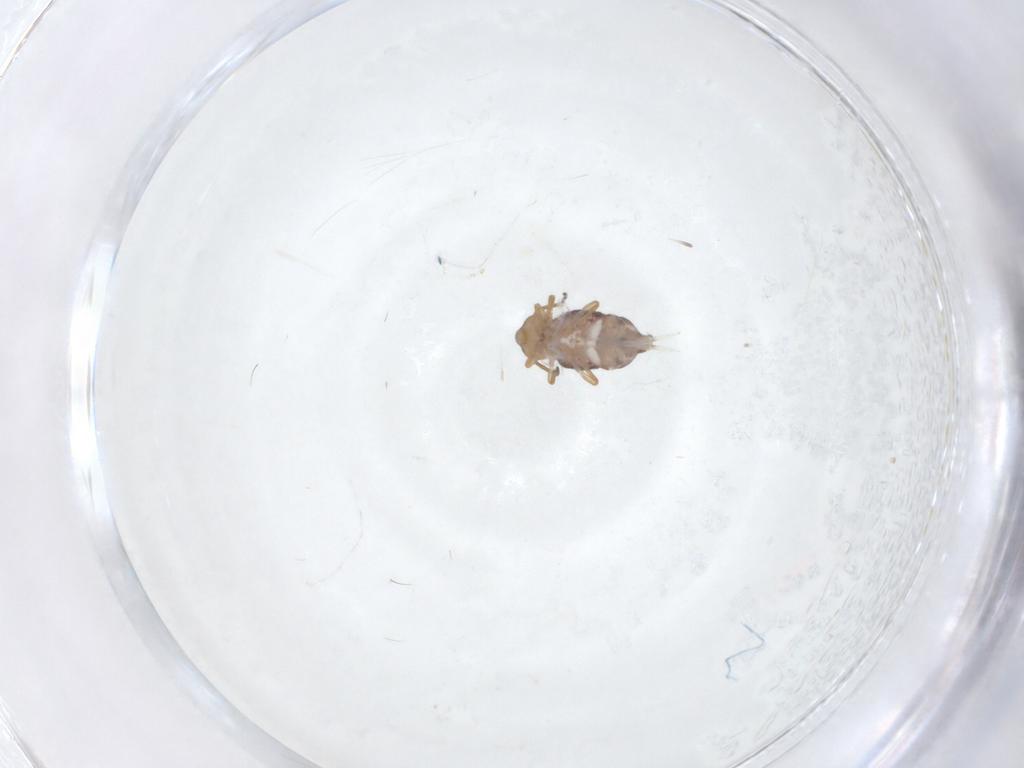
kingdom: Animalia
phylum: Arthropoda
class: Collembola
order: Symphypleona
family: Katiannidae
